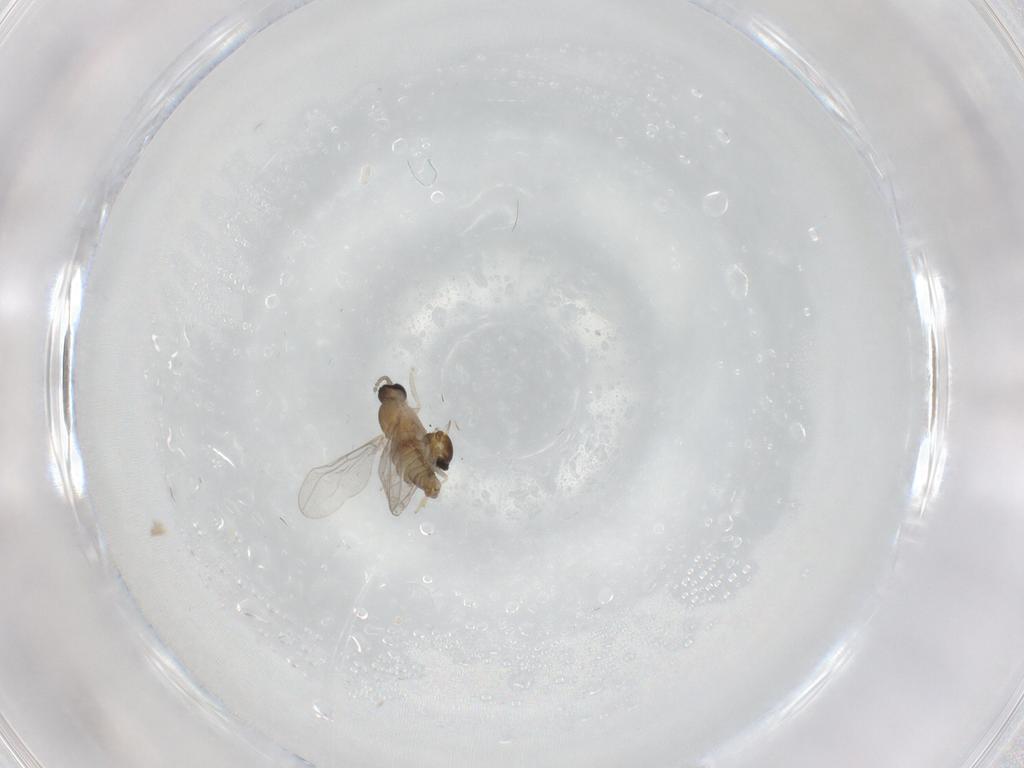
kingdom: Animalia
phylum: Arthropoda
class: Insecta
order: Diptera
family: Cecidomyiidae
